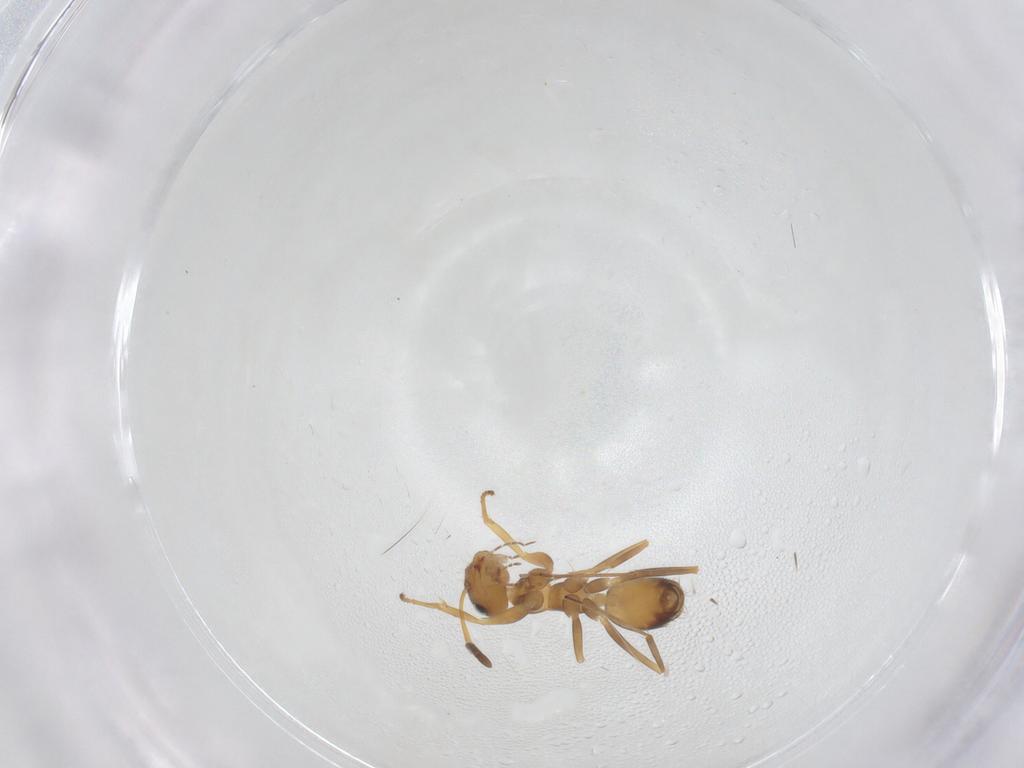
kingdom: Animalia
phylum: Arthropoda
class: Insecta
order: Hymenoptera
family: Formicidae
